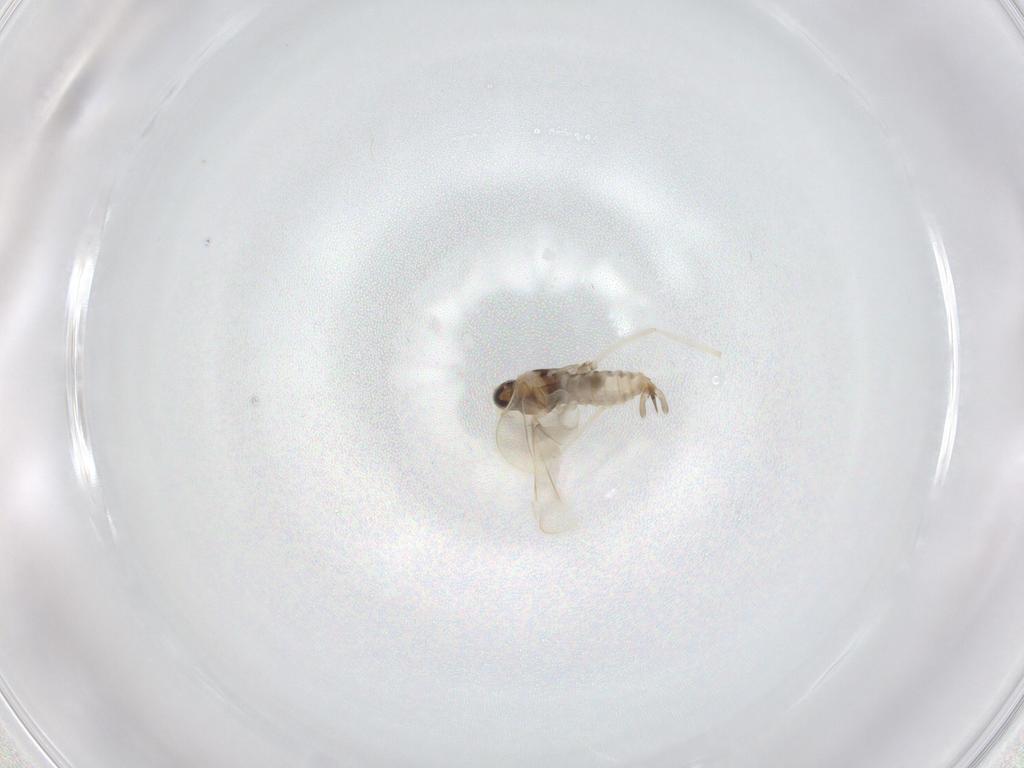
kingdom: Animalia
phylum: Arthropoda
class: Insecta
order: Diptera
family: Cecidomyiidae
